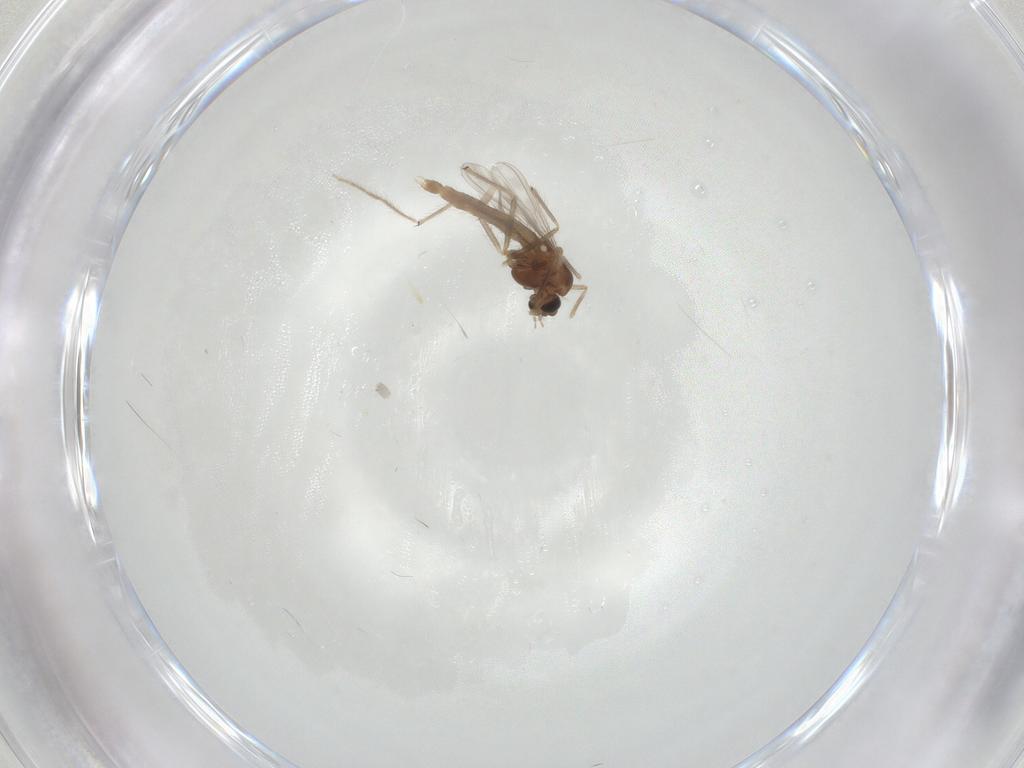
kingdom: Animalia
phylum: Arthropoda
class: Insecta
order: Diptera
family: Chironomidae
